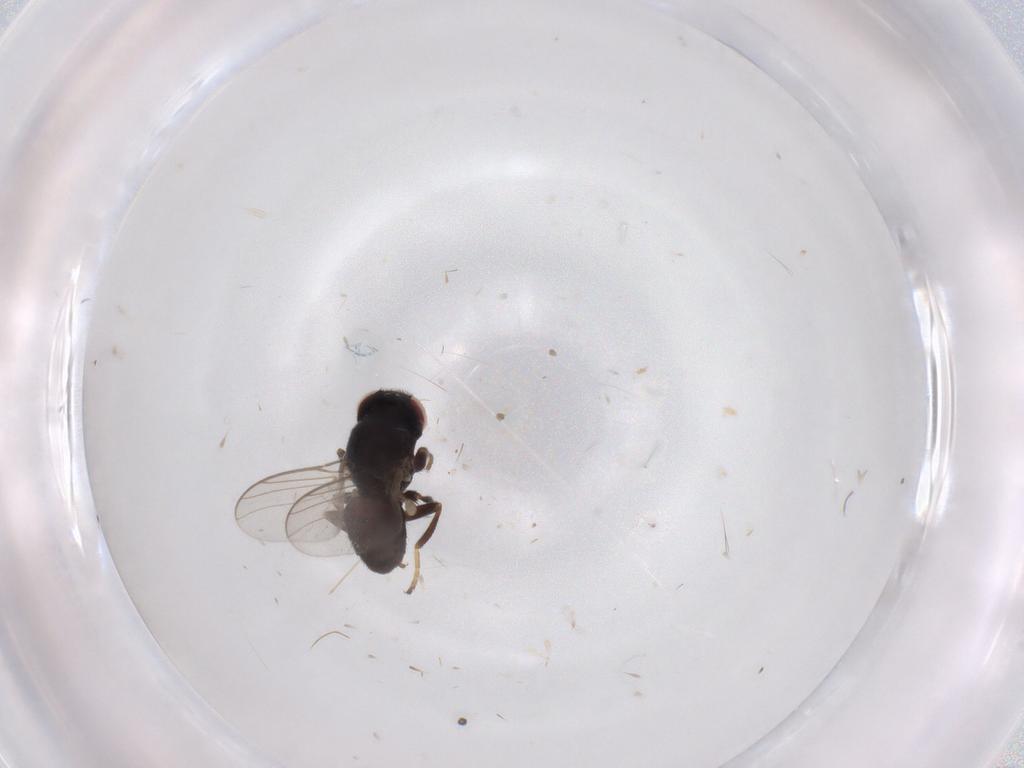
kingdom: Animalia
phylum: Arthropoda
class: Insecta
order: Diptera
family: Chloropidae
